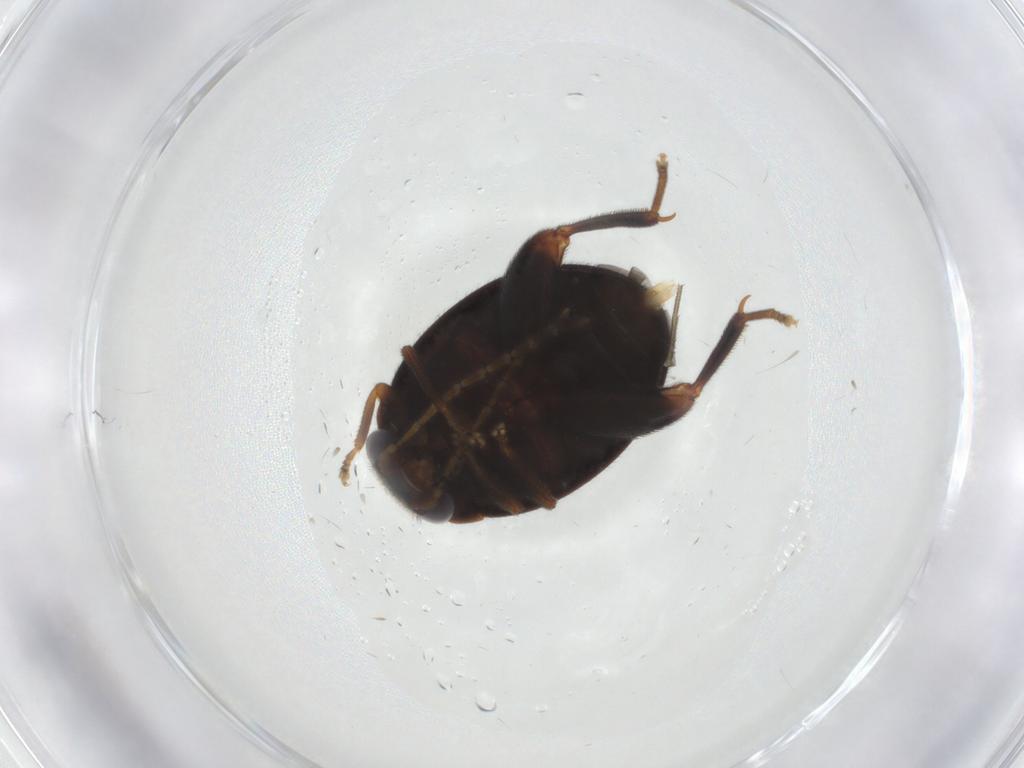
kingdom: Animalia
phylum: Arthropoda
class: Insecta
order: Coleoptera
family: Scirtidae
